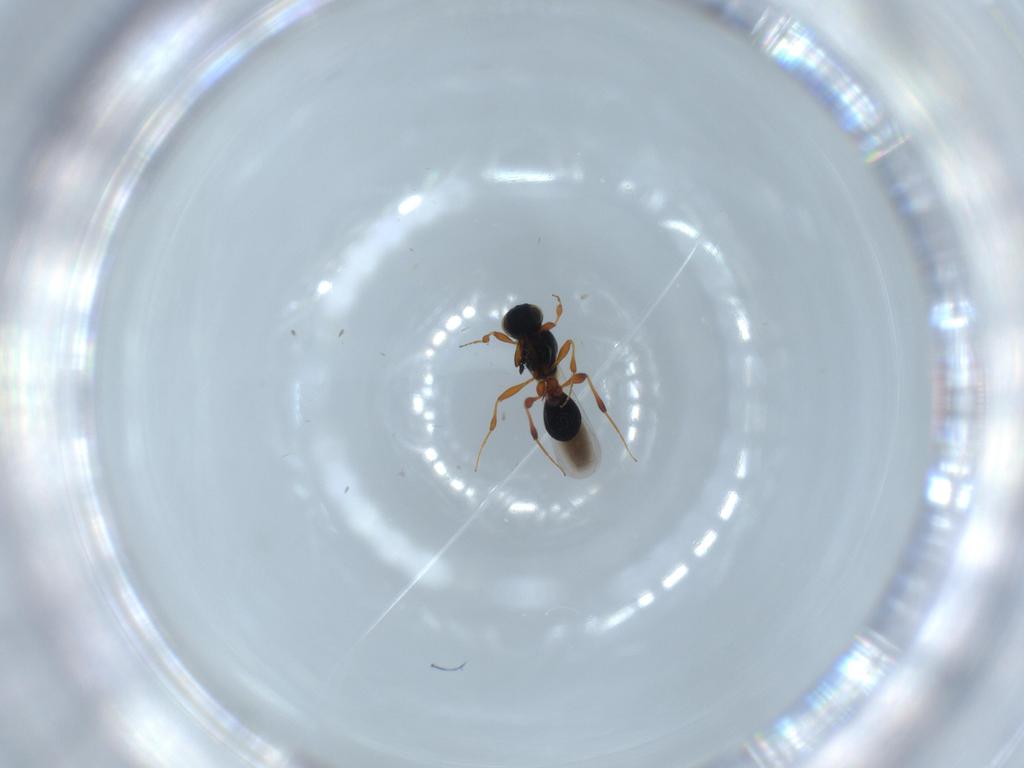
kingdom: Animalia
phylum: Arthropoda
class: Insecta
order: Hymenoptera
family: Platygastridae
